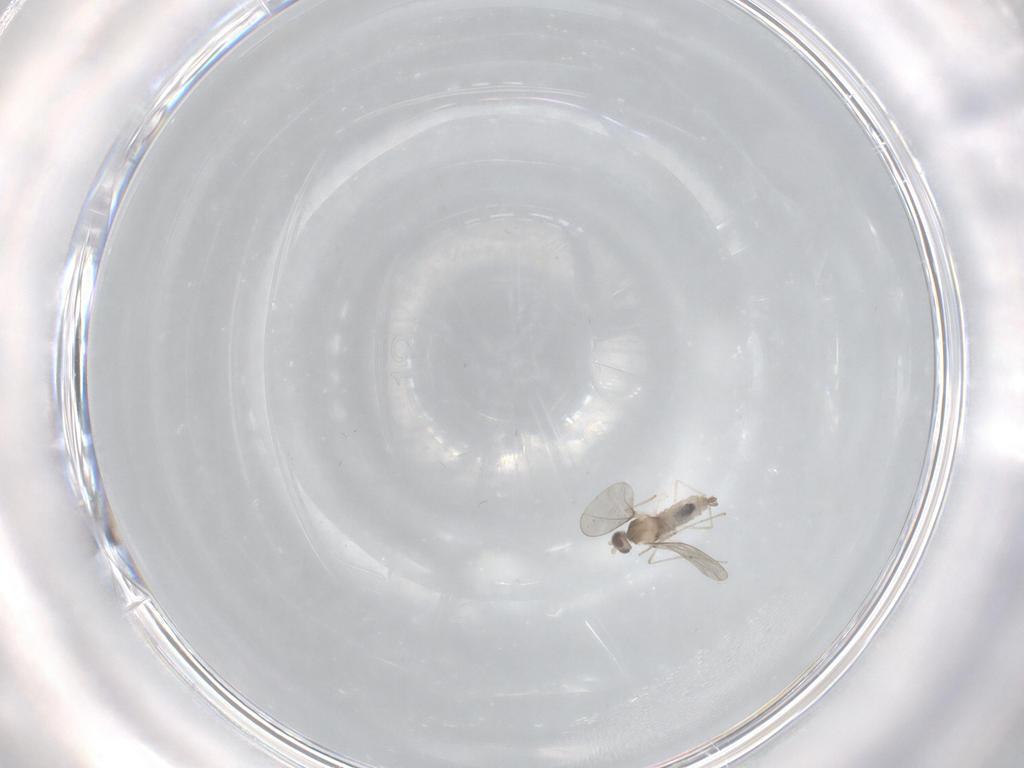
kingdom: Animalia
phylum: Arthropoda
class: Insecta
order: Diptera
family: Cecidomyiidae
